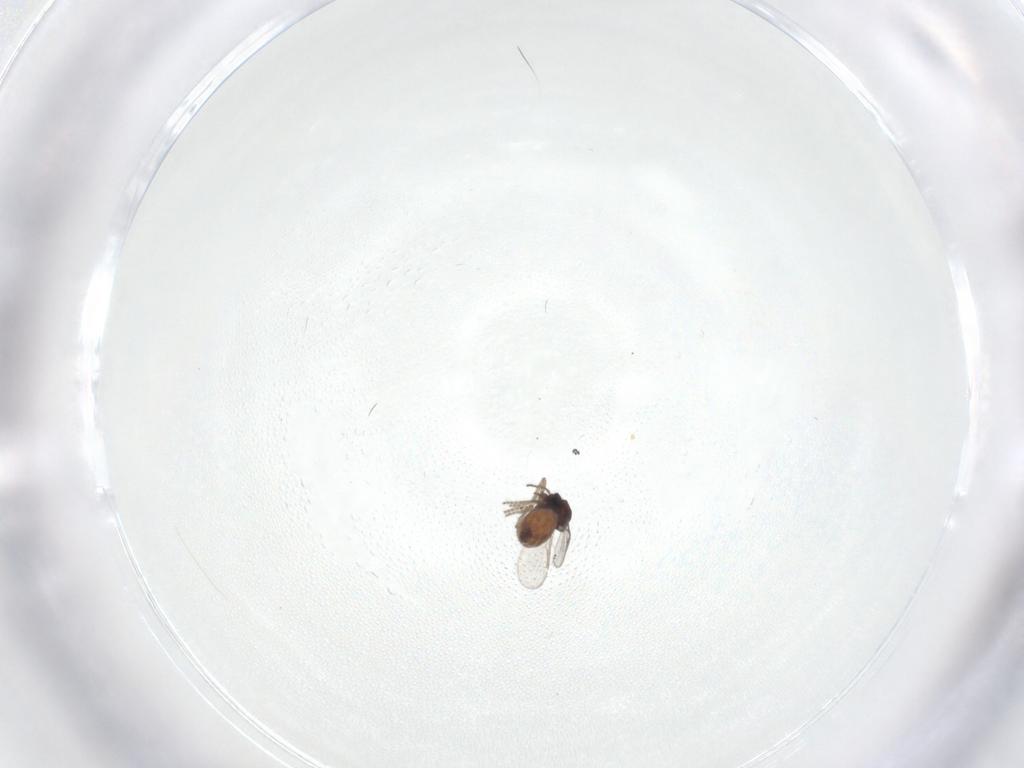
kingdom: Animalia
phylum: Arthropoda
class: Insecta
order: Diptera
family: Ceratopogonidae
